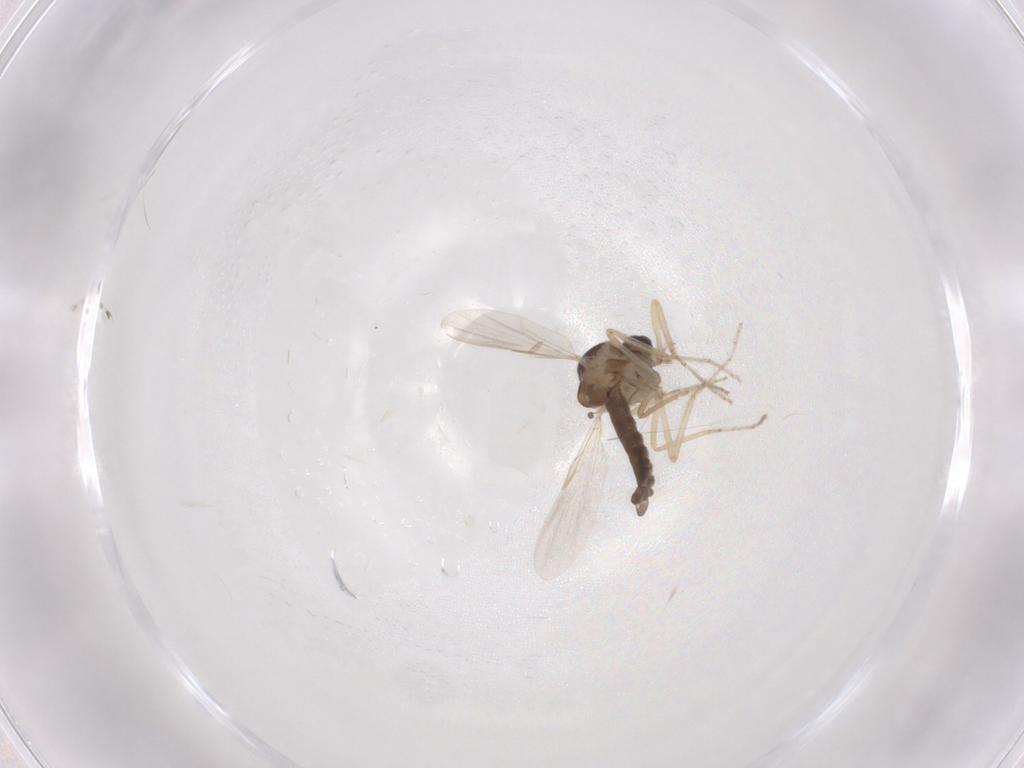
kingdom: Animalia
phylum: Arthropoda
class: Insecta
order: Diptera
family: Ceratopogonidae
